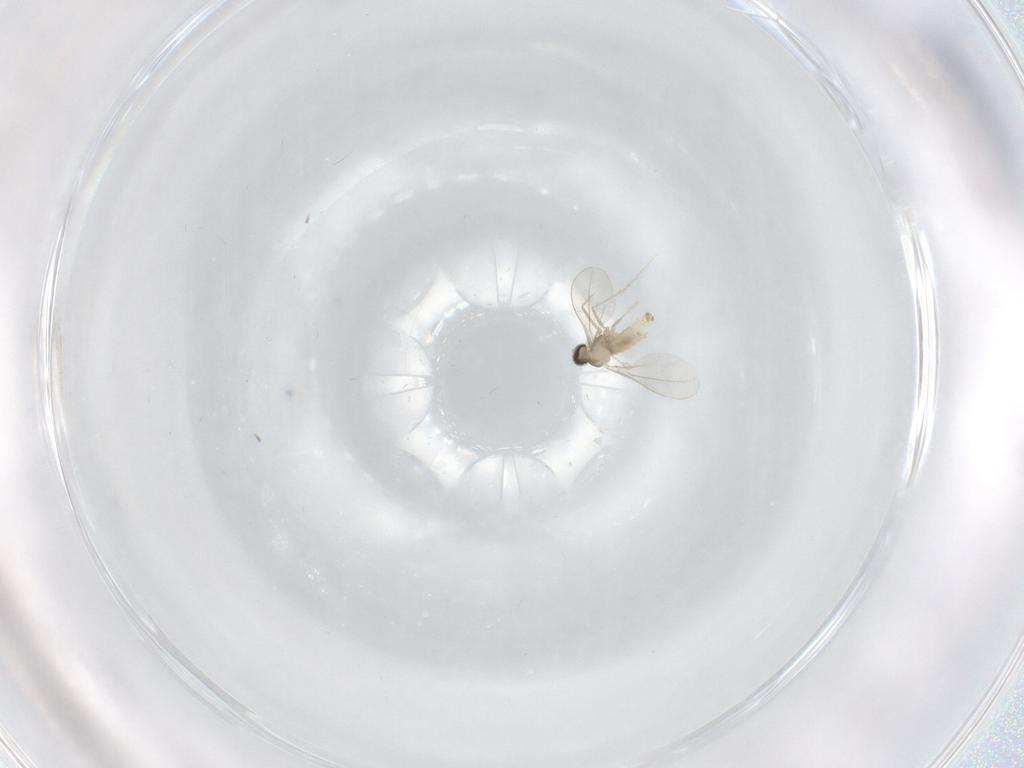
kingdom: Animalia
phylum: Arthropoda
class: Insecta
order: Diptera
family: Phoridae
